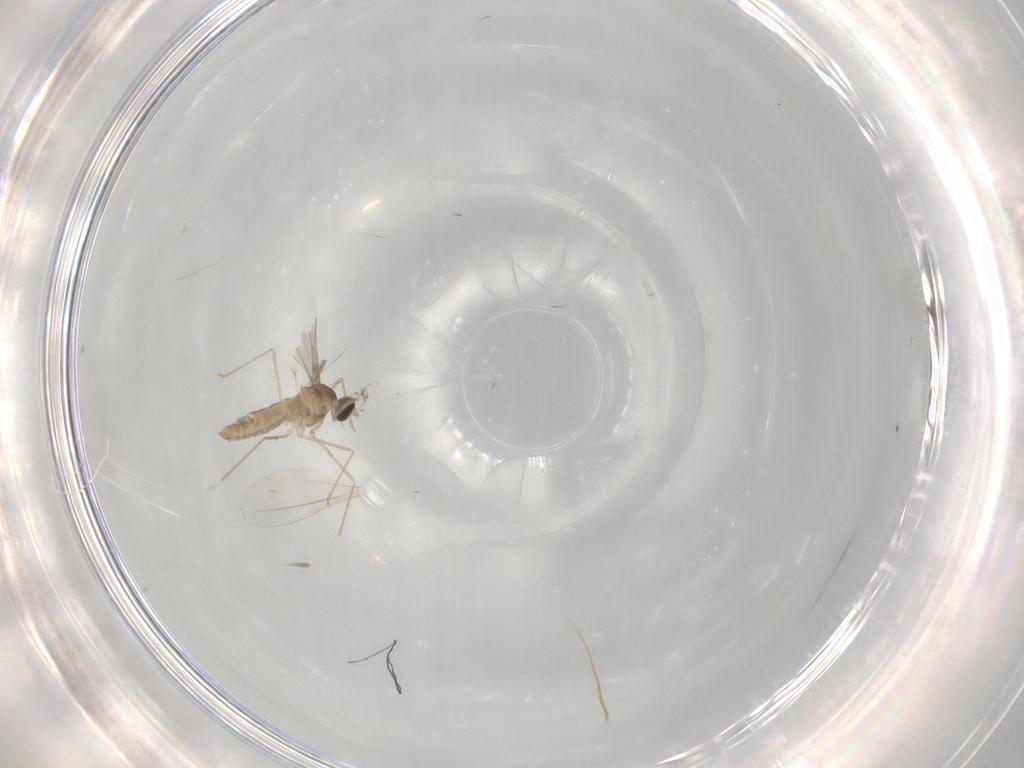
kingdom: Animalia
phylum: Arthropoda
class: Insecta
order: Diptera
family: Cecidomyiidae
